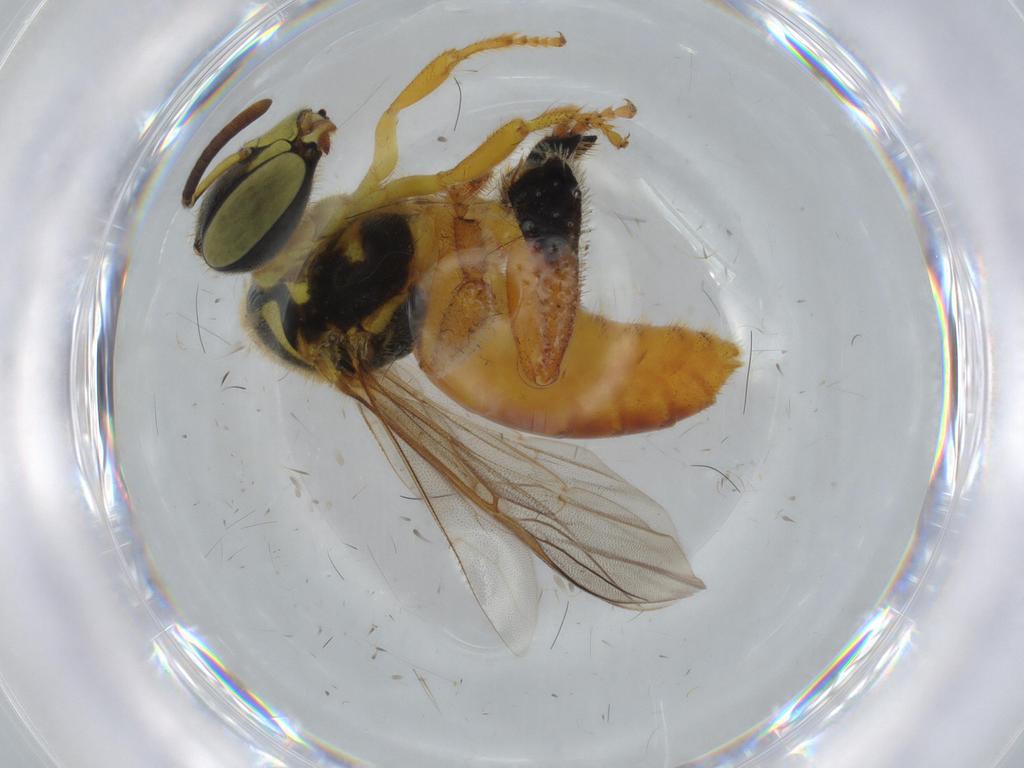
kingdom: Animalia
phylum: Arthropoda
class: Insecta
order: Hymenoptera
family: Apidae
